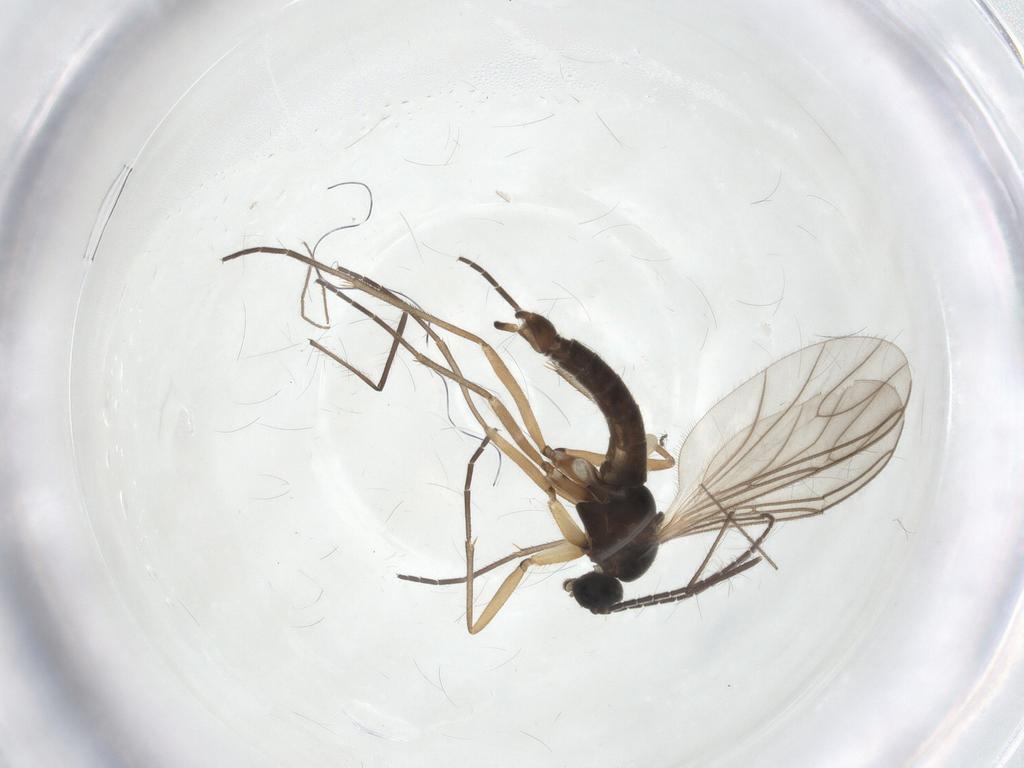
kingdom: Animalia
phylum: Arthropoda
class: Insecta
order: Diptera
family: Sciaridae
